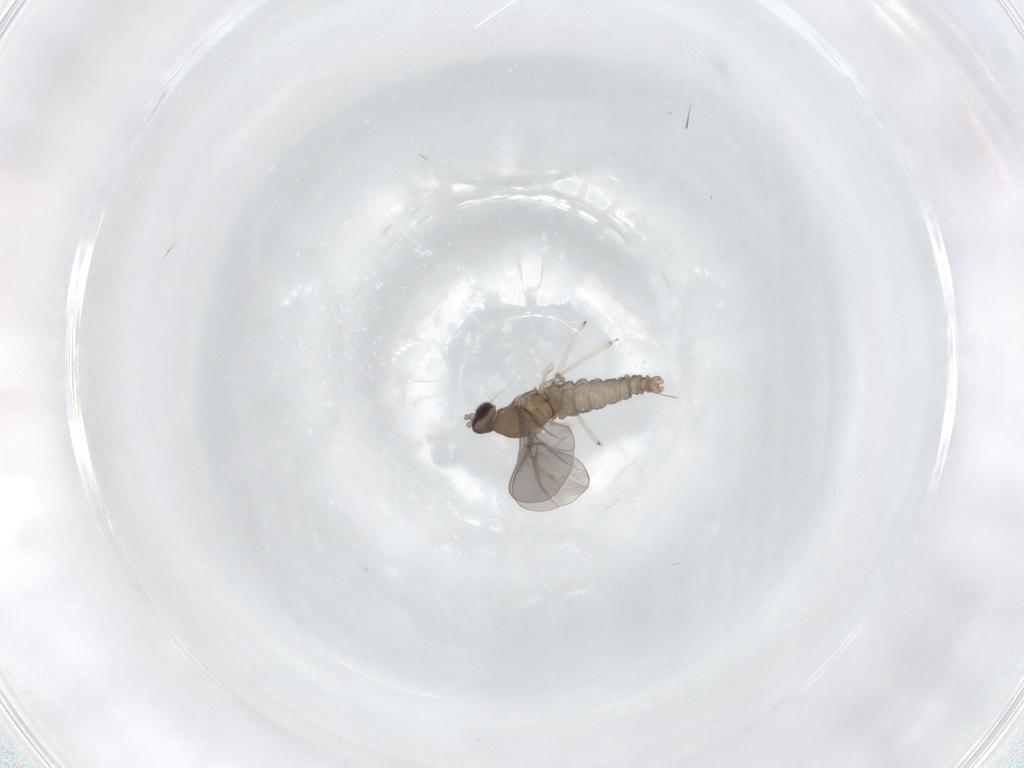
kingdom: Animalia
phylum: Arthropoda
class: Insecta
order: Diptera
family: Cecidomyiidae
